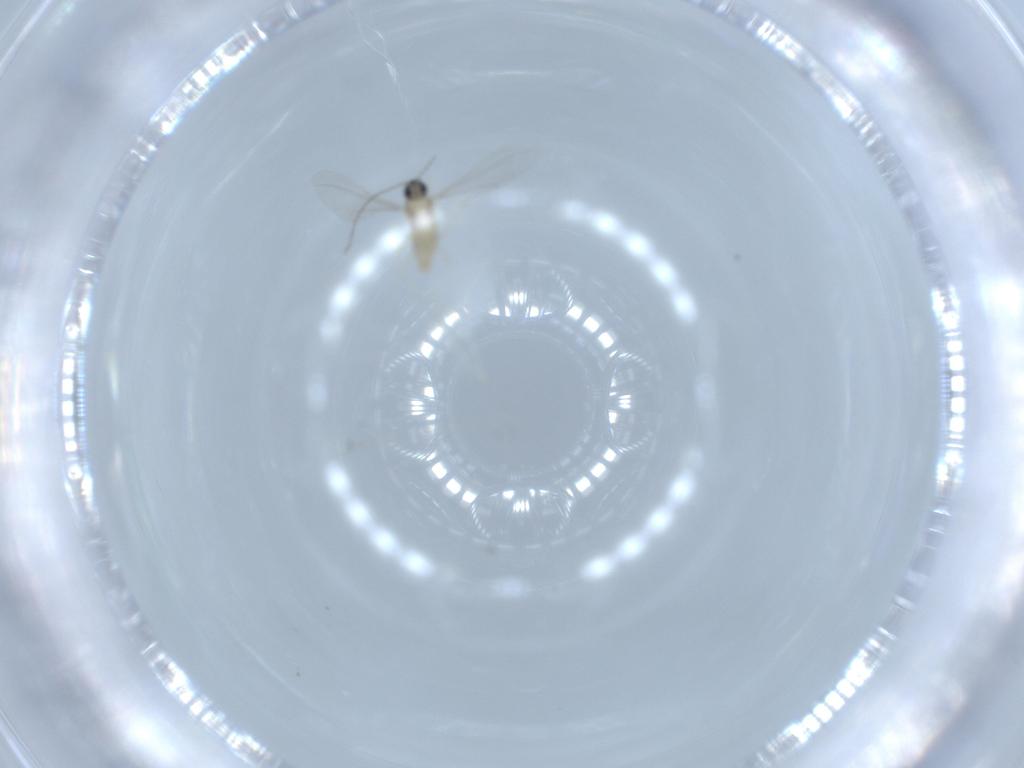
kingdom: Animalia
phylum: Arthropoda
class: Insecta
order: Diptera
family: Cecidomyiidae
